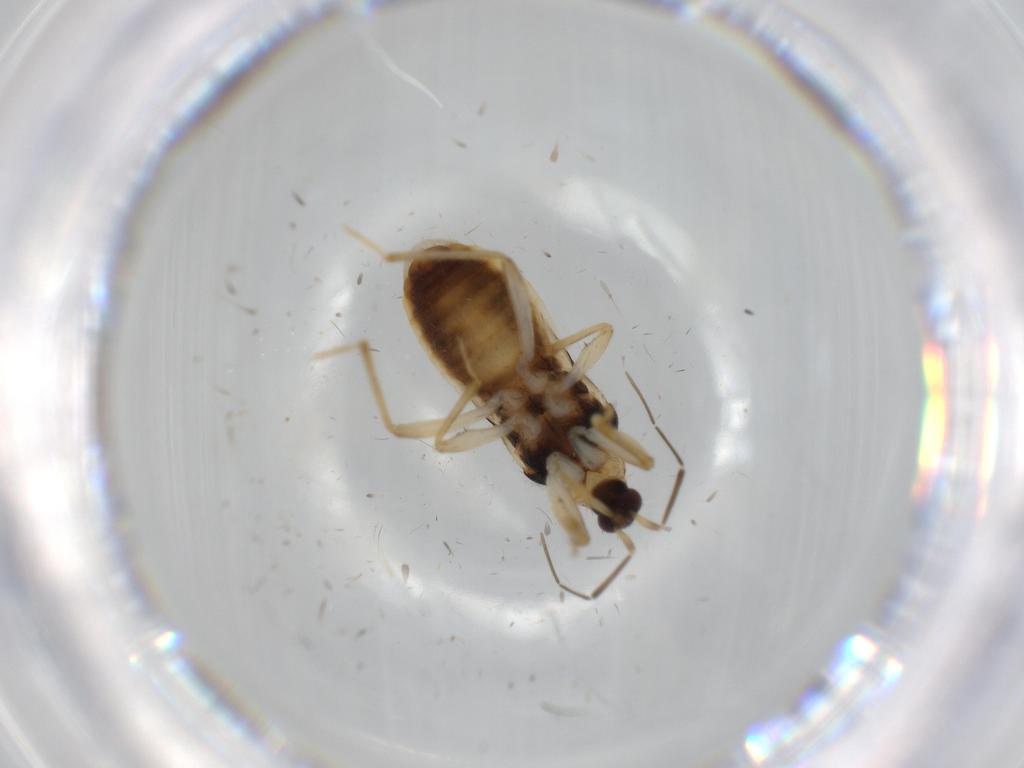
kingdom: Animalia
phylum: Arthropoda
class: Insecta
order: Hemiptera
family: Nabidae
